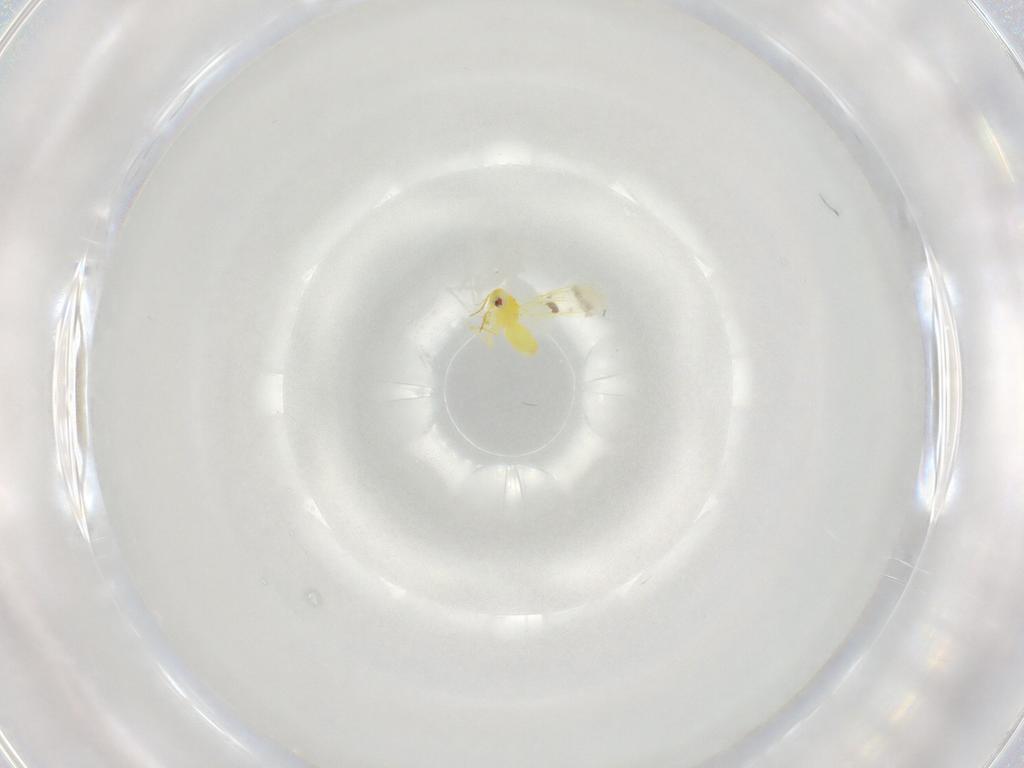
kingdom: Animalia
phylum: Arthropoda
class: Insecta
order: Hemiptera
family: Aleyrodidae
